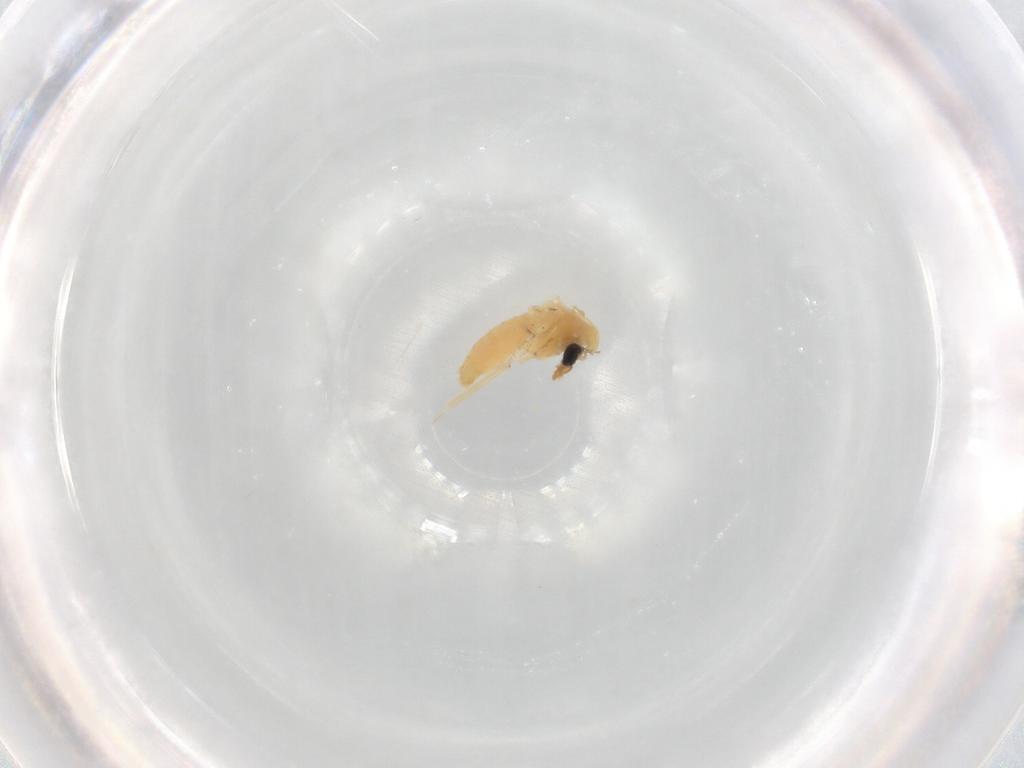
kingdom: Animalia
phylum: Arthropoda
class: Insecta
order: Diptera
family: Chironomidae
